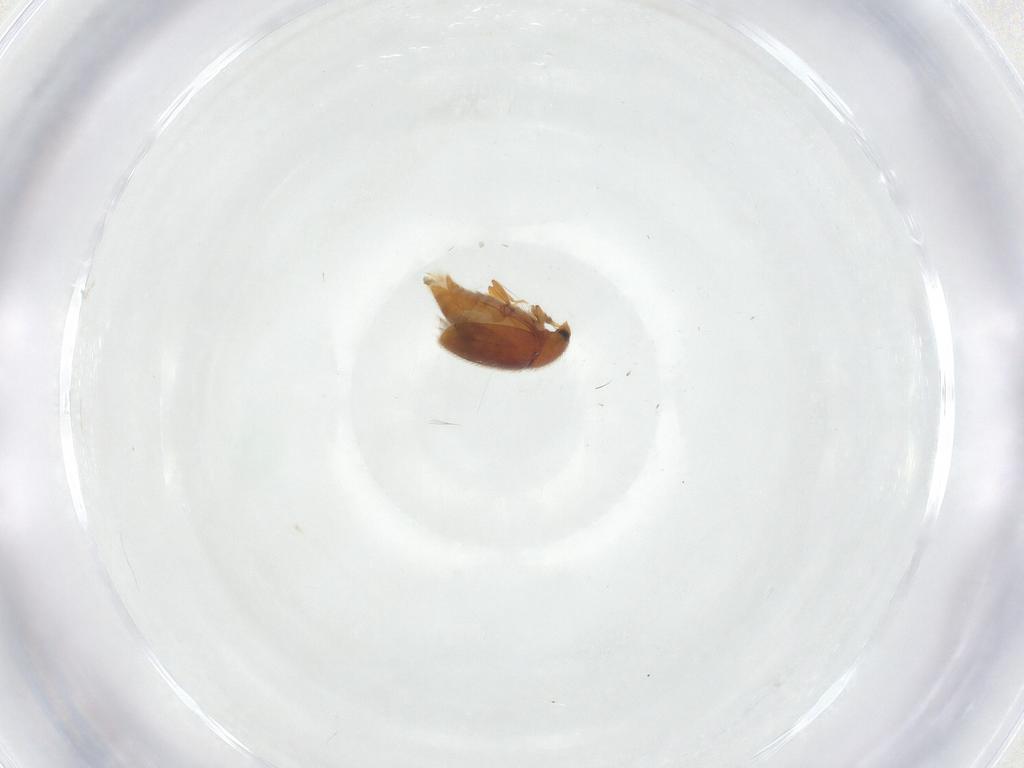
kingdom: Animalia
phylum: Arthropoda
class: Insecta
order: Coleoptera
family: Corylophidae
